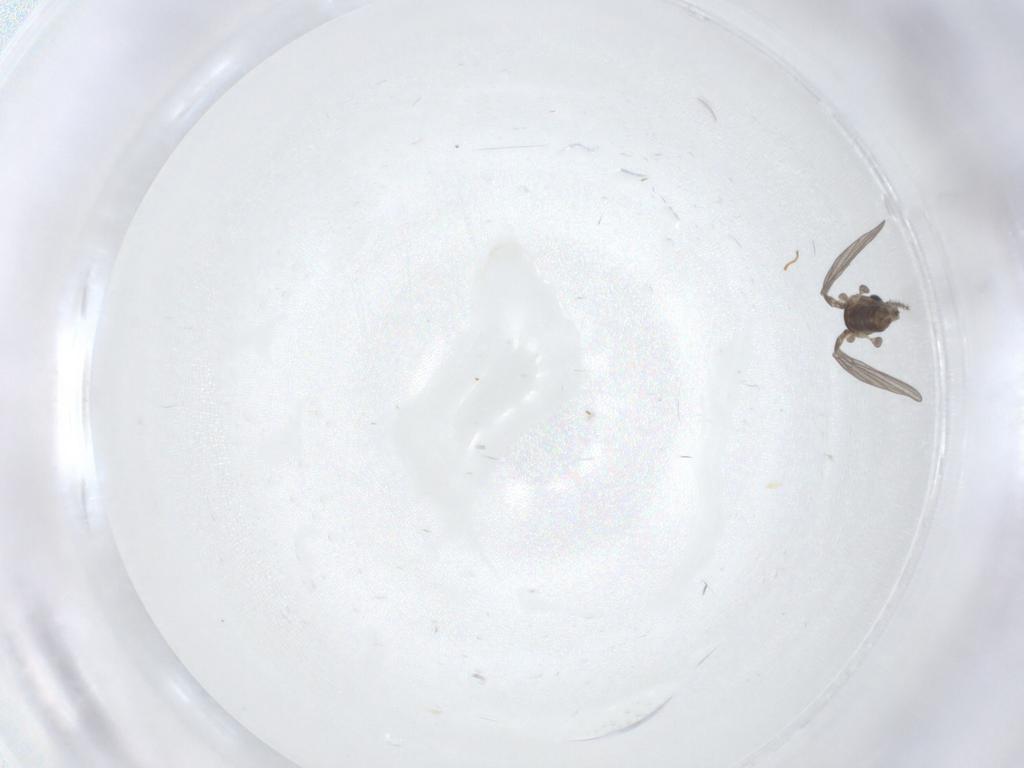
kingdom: Animalia
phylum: Arthropoda
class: Insecta
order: Diptera
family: Sciaridae
